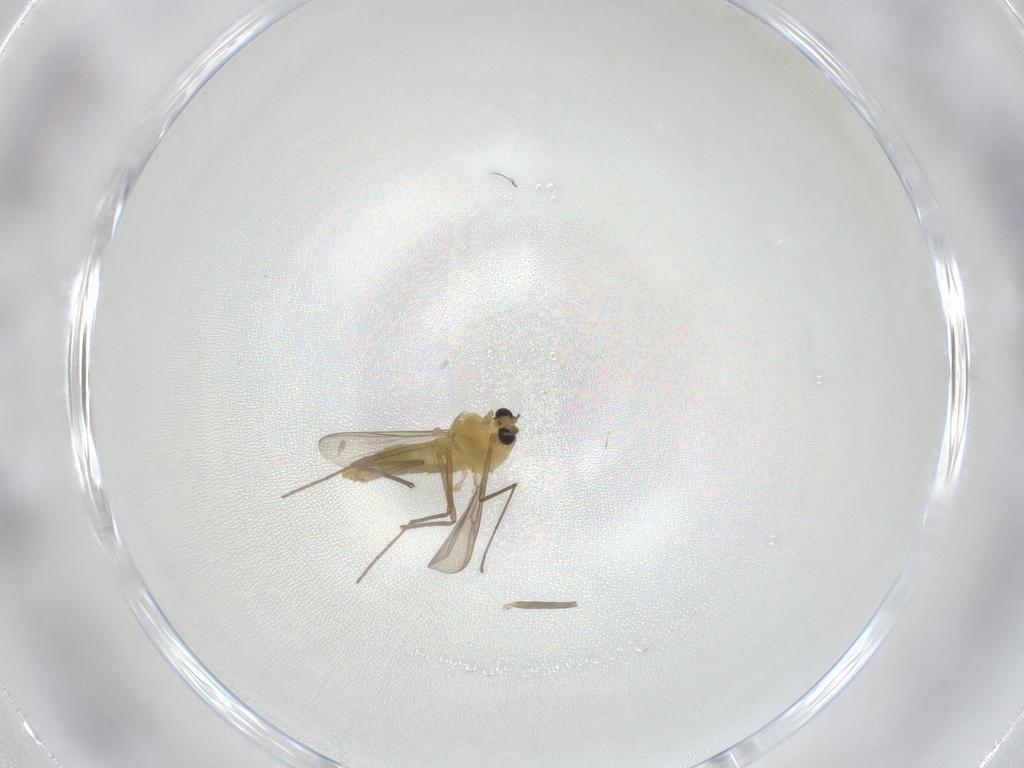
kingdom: Animalia
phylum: Arthropoda
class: Insecta
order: Diptera
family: Chironomidae
